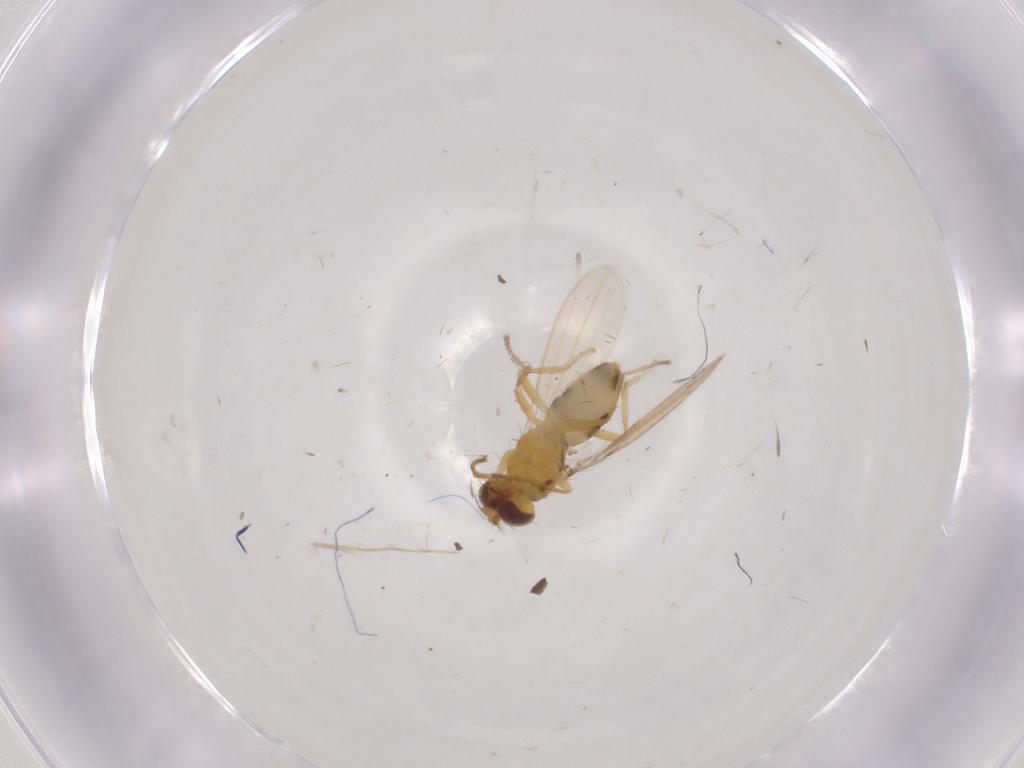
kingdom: Animalia
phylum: Arthropoda
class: Insecta
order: Diptera
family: Sciaridae
